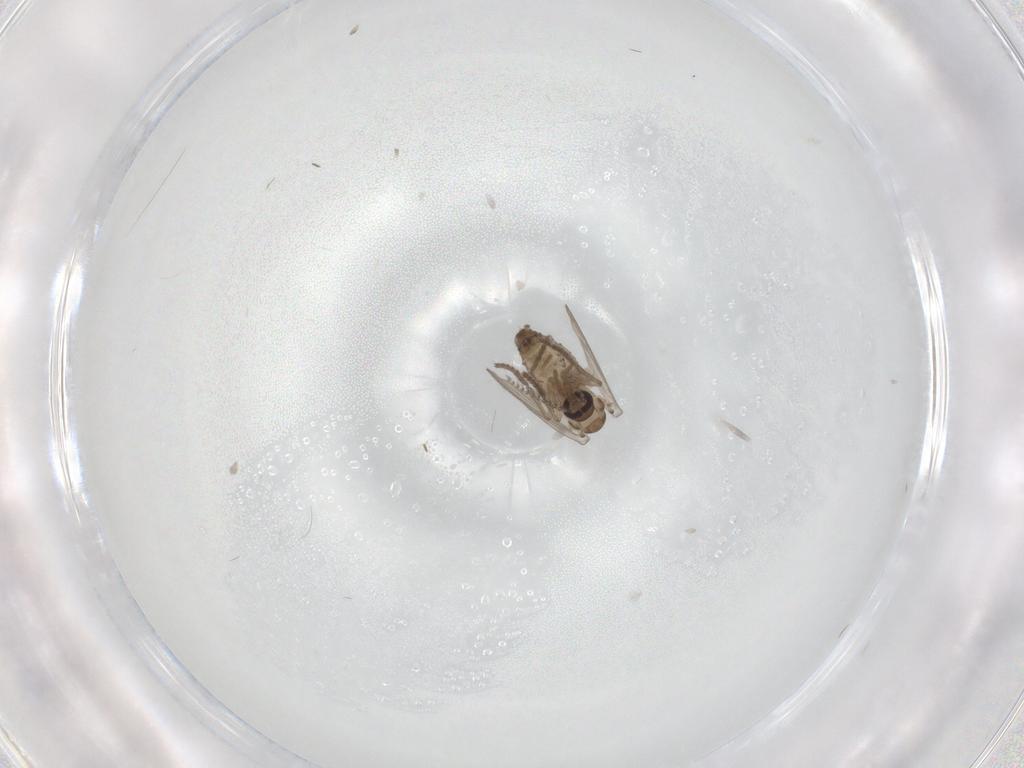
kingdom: Animalia
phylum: Arthropoda
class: Insecta
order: Diptera
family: Psychodidae
